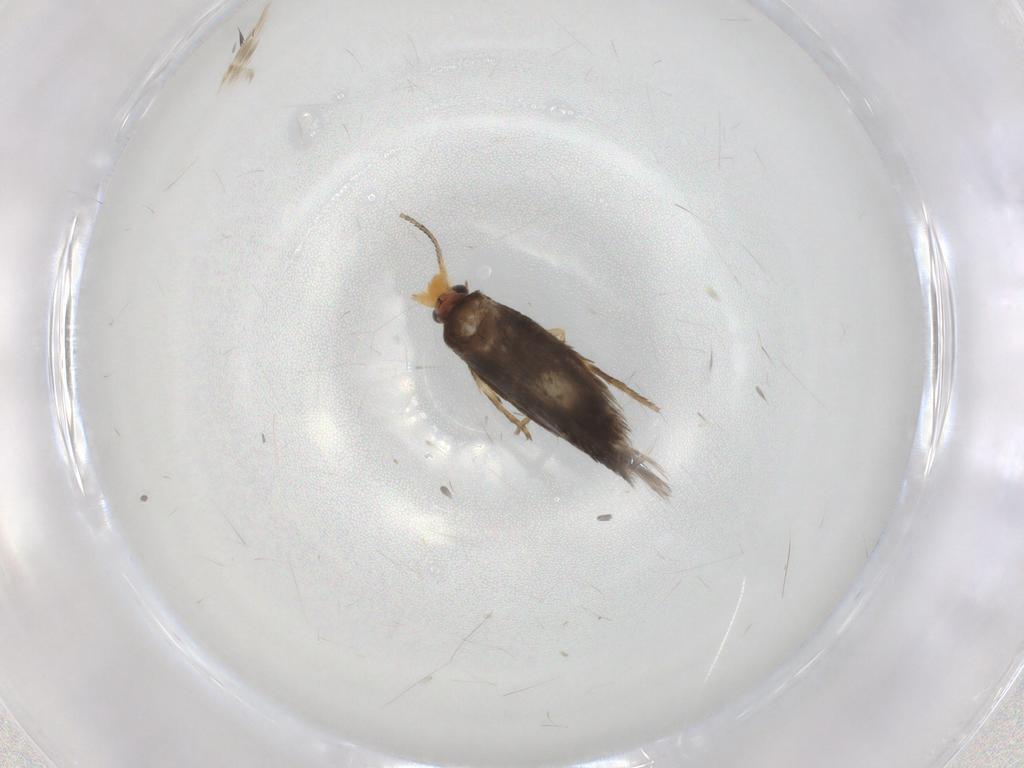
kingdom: Animalia
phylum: Arthropoda
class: Insecta
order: Lepidoptera
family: Nepticulidae
